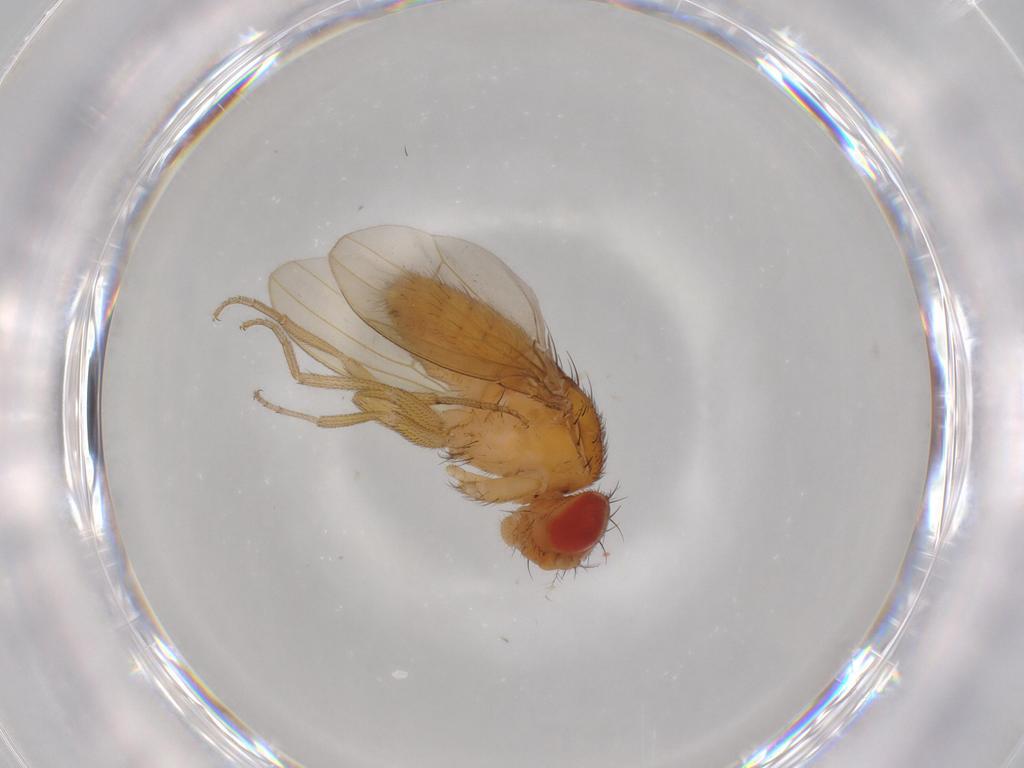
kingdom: Animalia
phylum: Arthropoda
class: Insecta
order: Diptera
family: Drosophilidae
